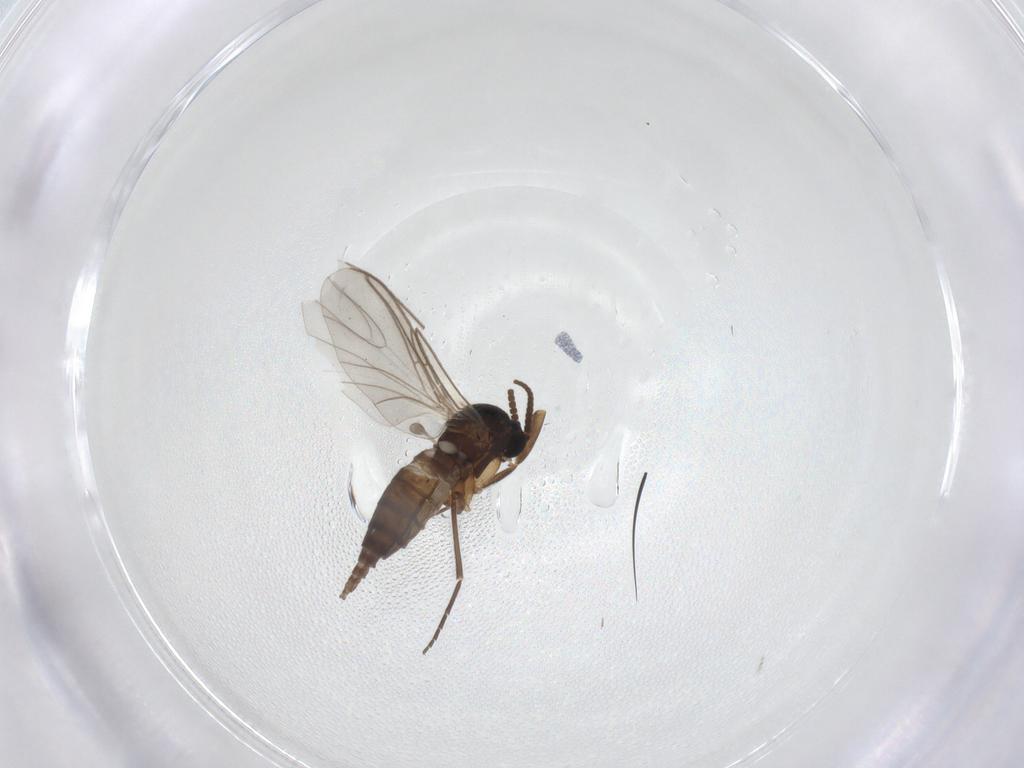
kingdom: Animalia
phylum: Arthropoda
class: Insecta
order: Diptera
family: Sciaridae
